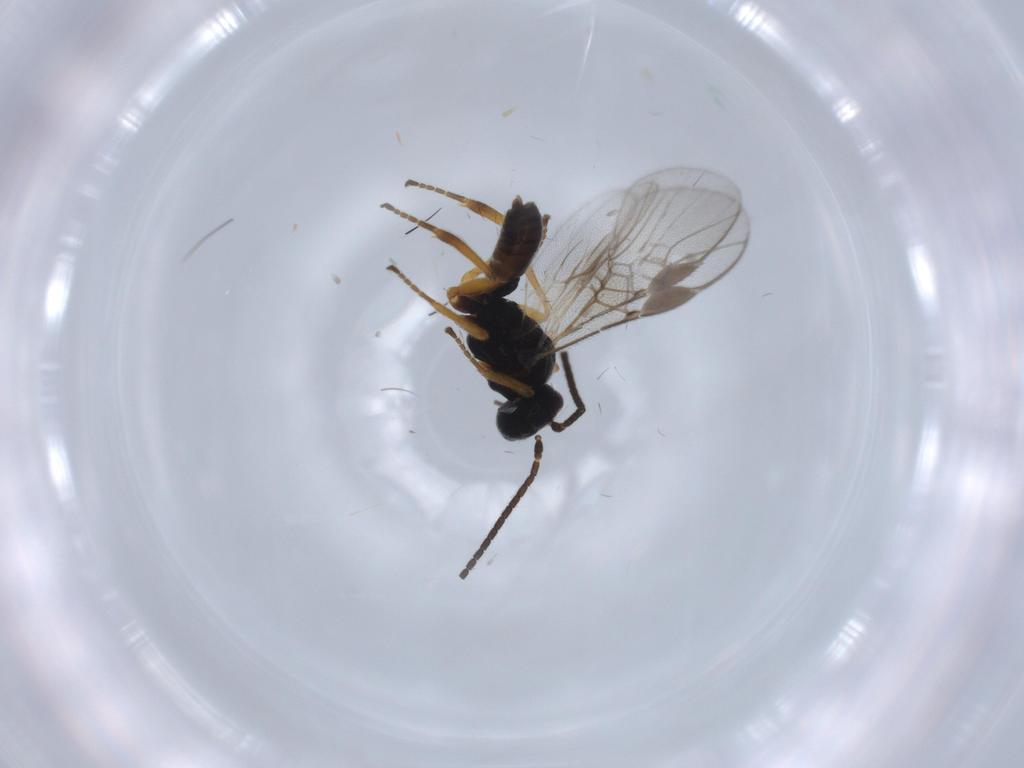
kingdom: Animalia
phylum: Arthropoda
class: Insecta
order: Hymenoptera
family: Braconidae
